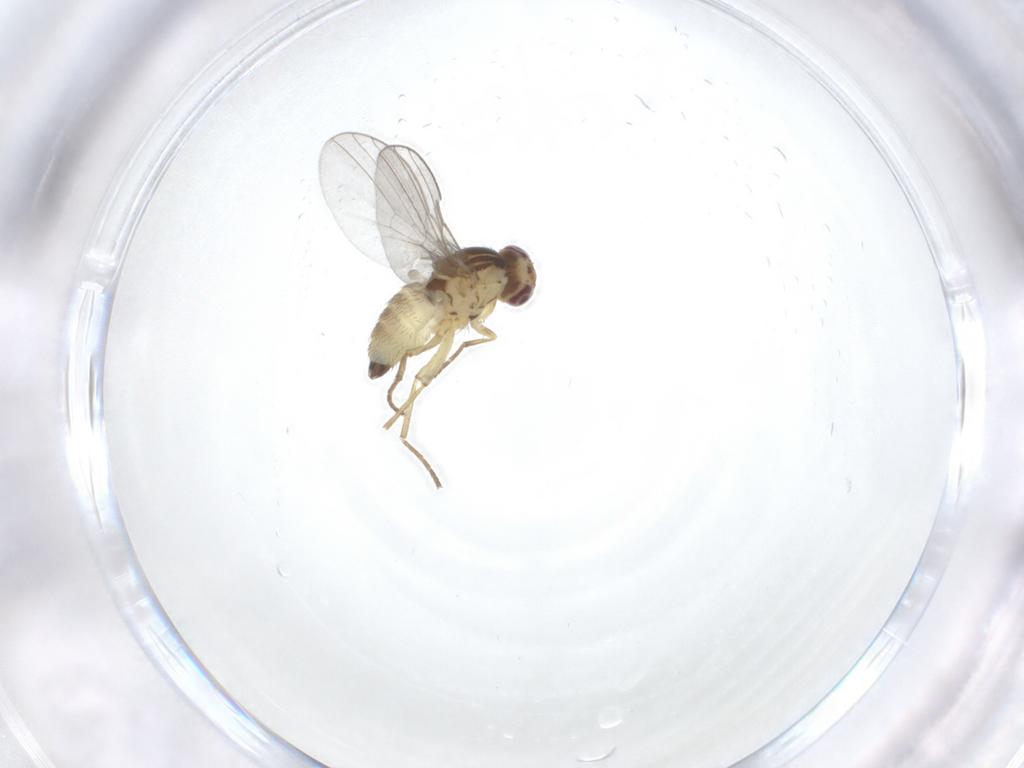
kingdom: Animalia
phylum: Arthropoda
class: Insecta
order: Diptera
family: Agromyzidae
